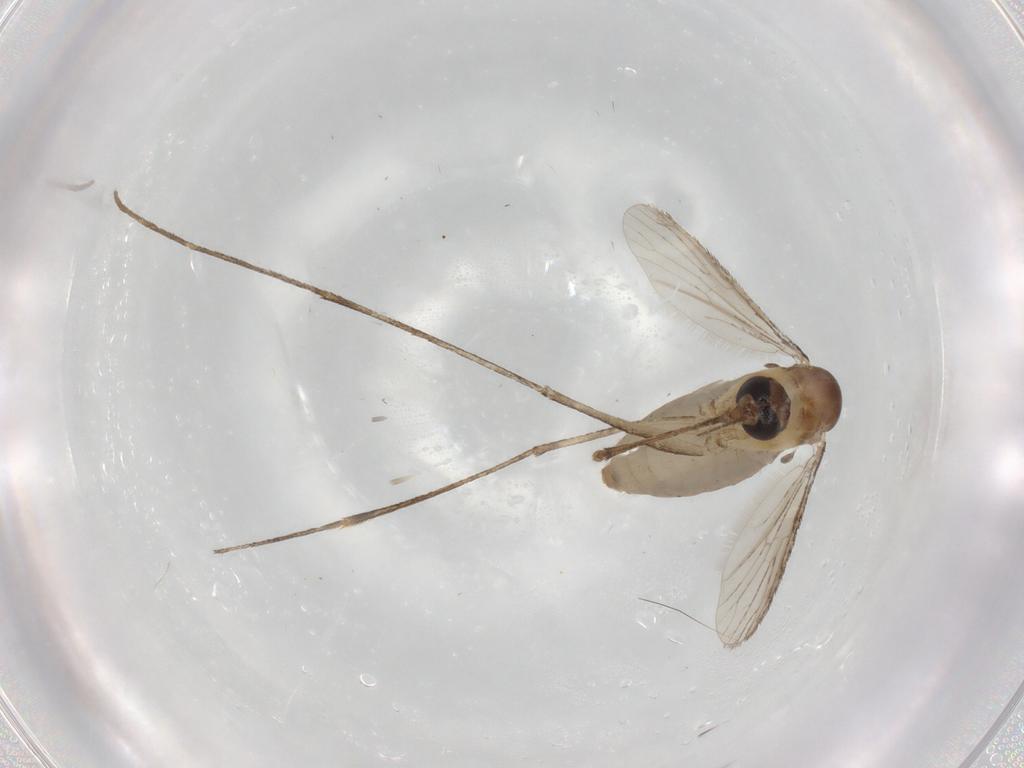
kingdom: Animalia
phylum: Arthropoda
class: Insecta
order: Diptera
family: Culicidae
